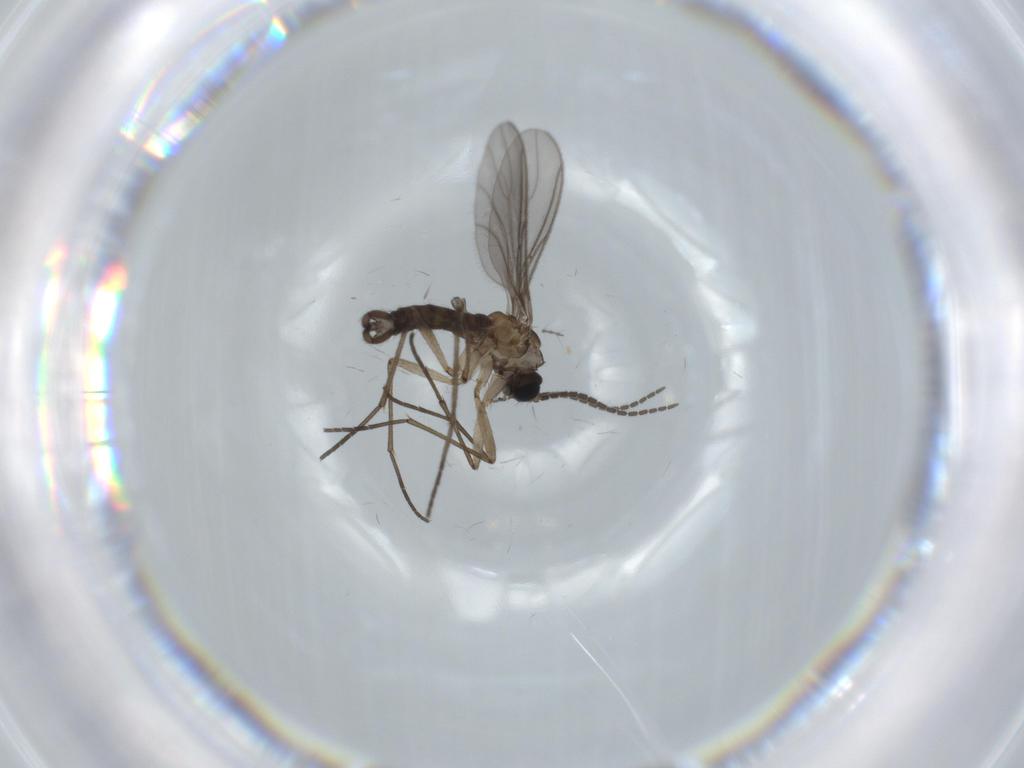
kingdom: Animalia
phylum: Arthropoda
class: Insecta
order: Diptera
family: Sciaridae
